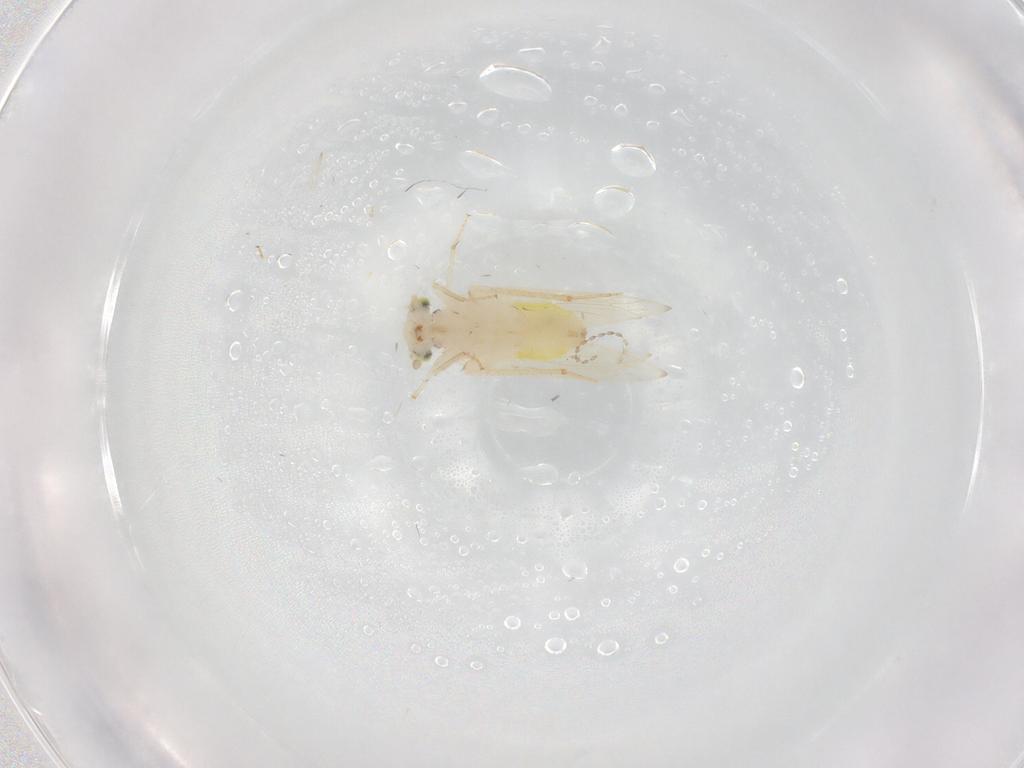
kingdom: Animalia
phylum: Arthropoda
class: Insecta
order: Psocodea
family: Lepidopsocidae
